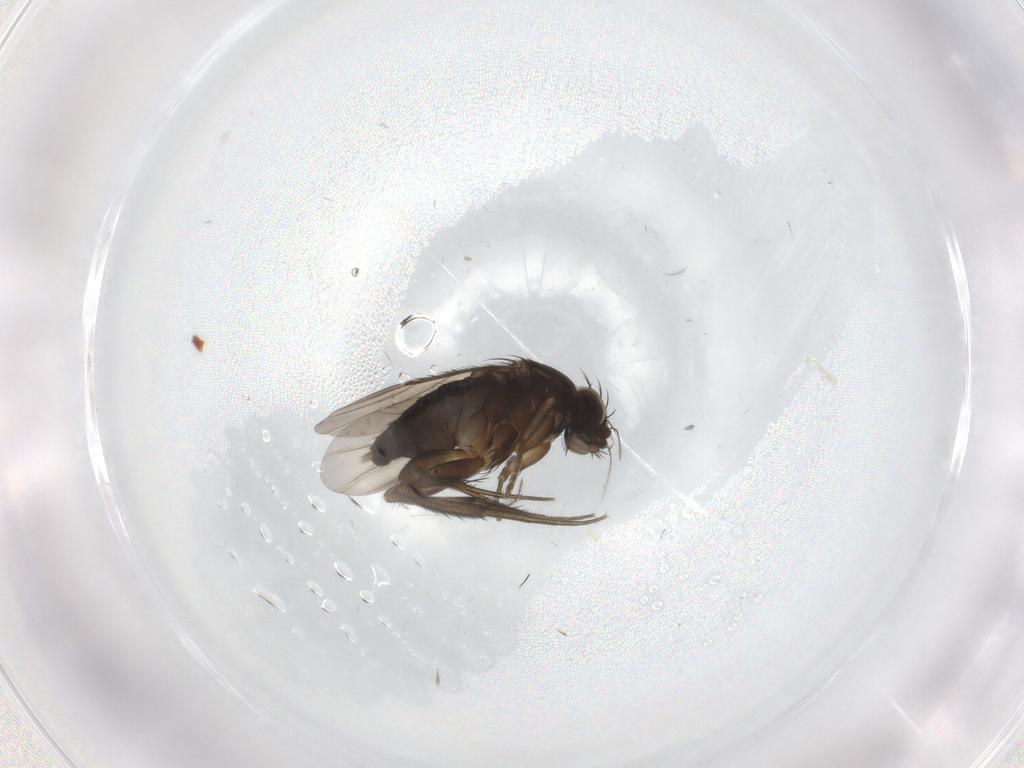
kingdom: Animalia
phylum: Arthropoda
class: Insecta
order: Diptera
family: Phoridae
